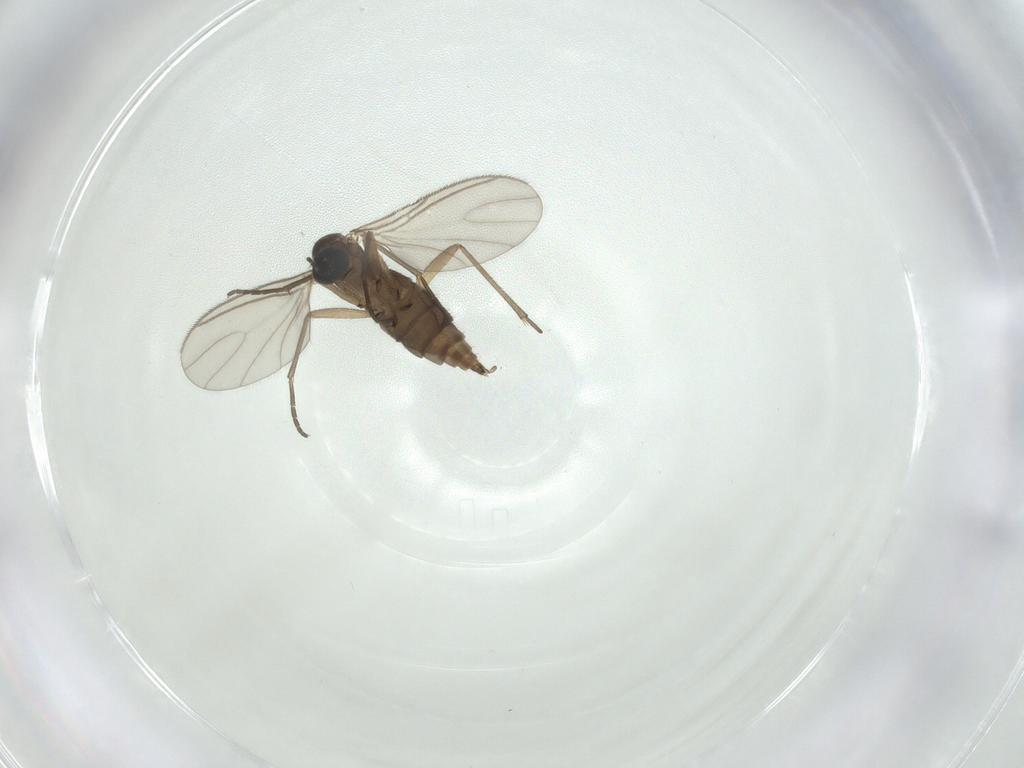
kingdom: Animalia
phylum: Arthropoda
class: Insecta
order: Diptera
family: Sciaridae
